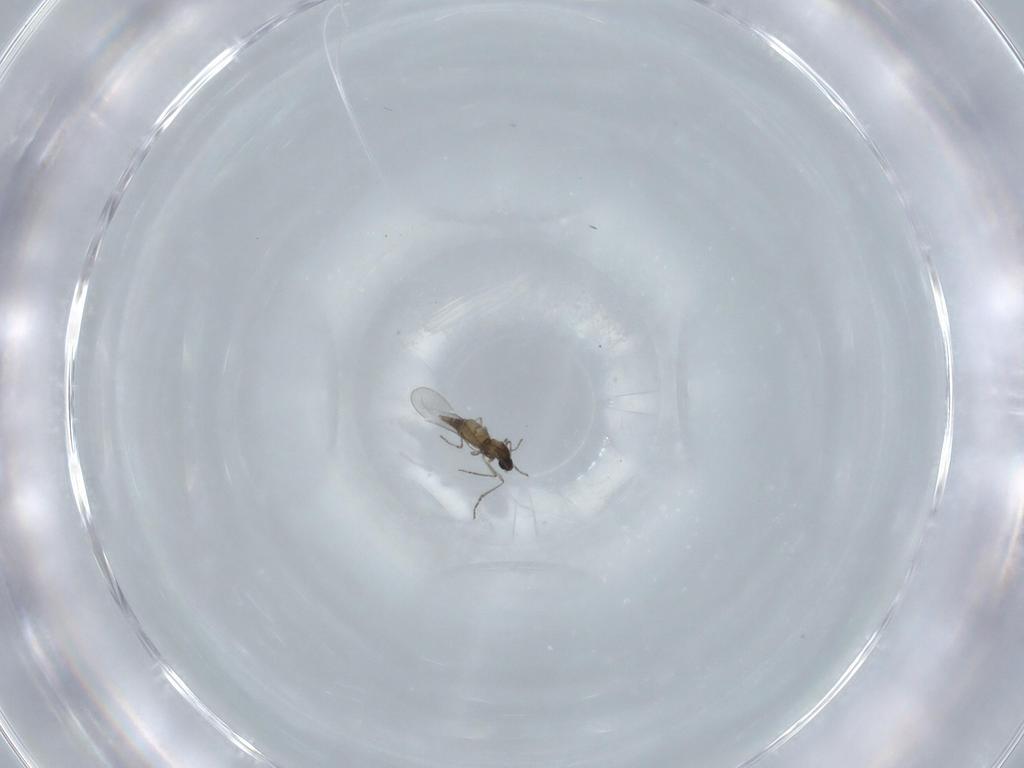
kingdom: Animalia
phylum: Arthropoda
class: Insecta
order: Diptera
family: Cecidomyiidae
